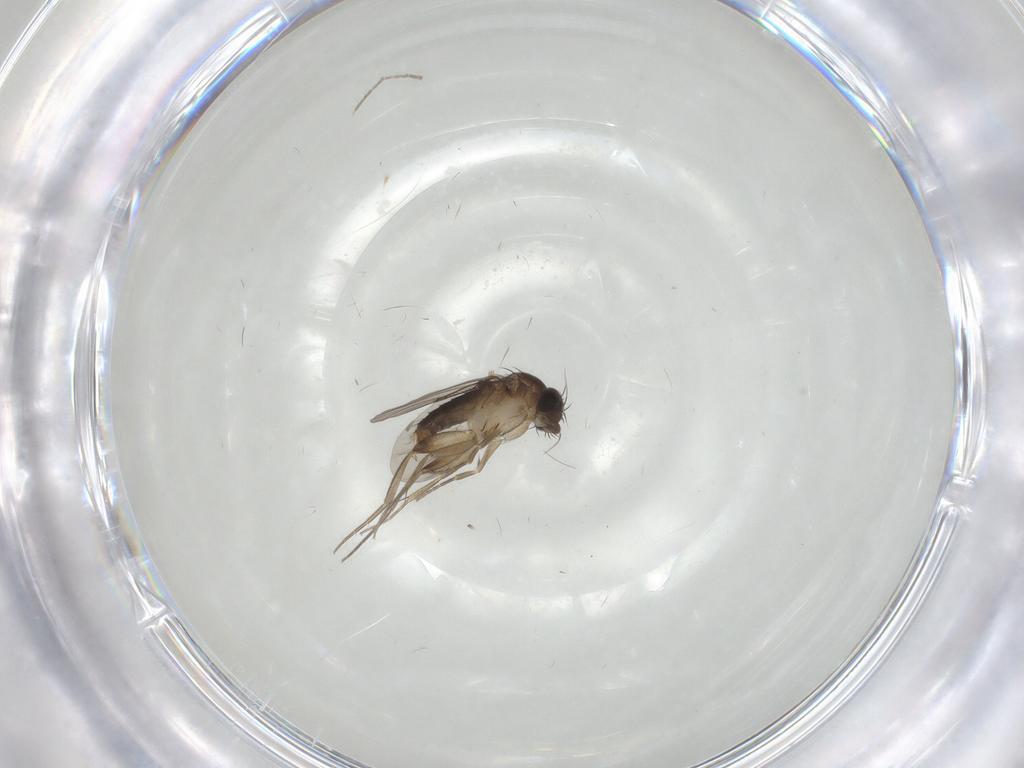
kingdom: Animalia
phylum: Arthropoda
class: Insecta
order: Diptera
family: Phoridae
